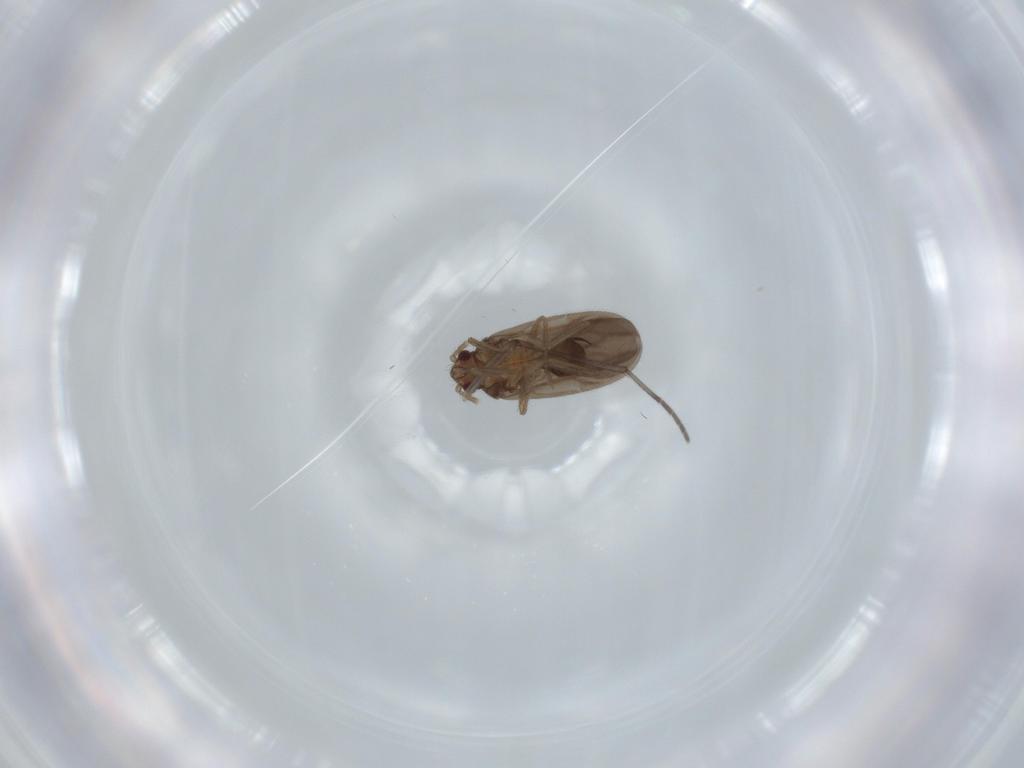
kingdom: Animalia
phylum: Arthropoda
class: Insecta
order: Hemiptera
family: Ceratocombidae
